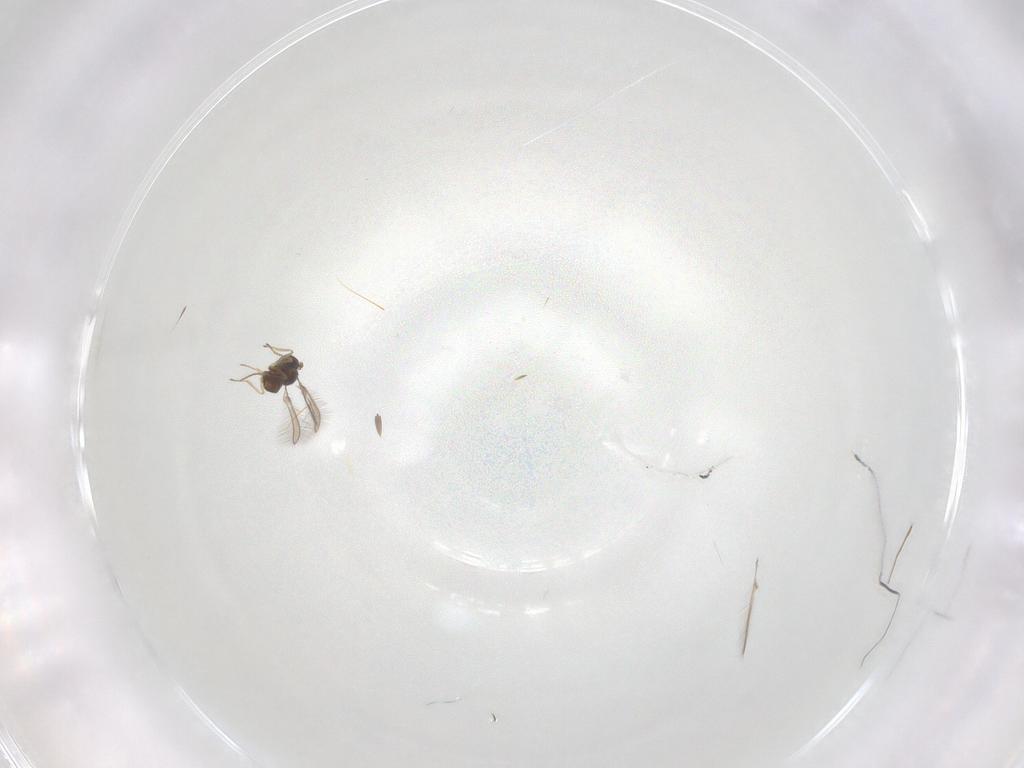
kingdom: Animalia
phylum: Arthropoda
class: Insecta
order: Hymenoptera
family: Mymaridae
